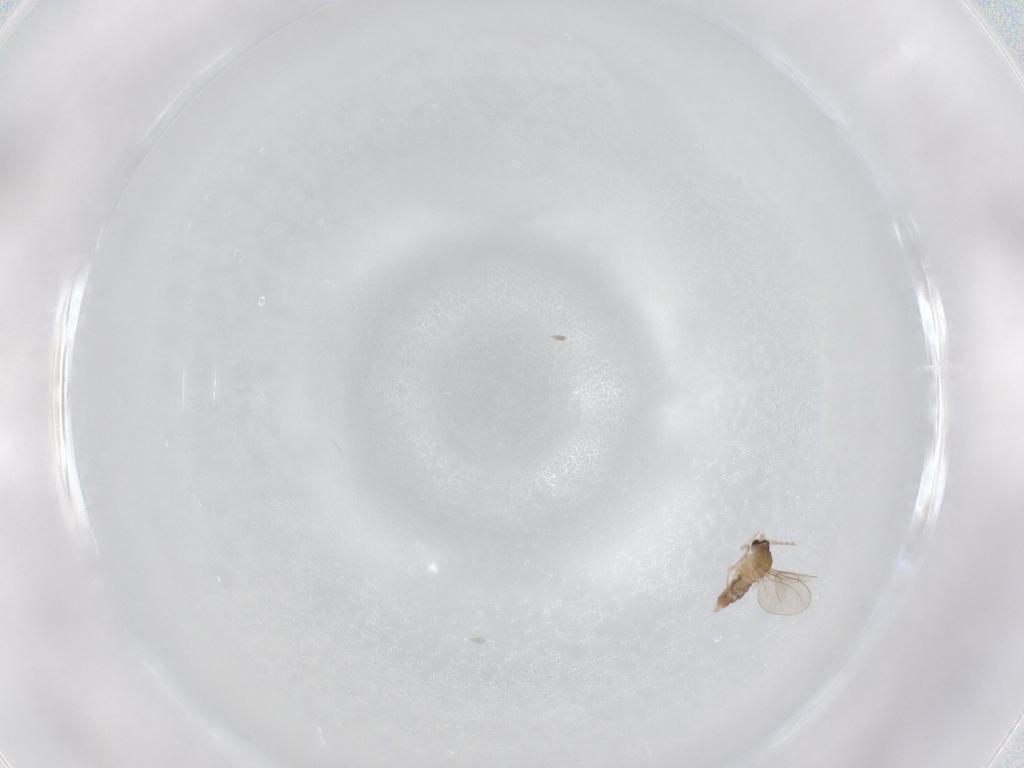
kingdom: Animalia
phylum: Arthropoda
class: Insecta
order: Diptera
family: Cecidomyiidae
